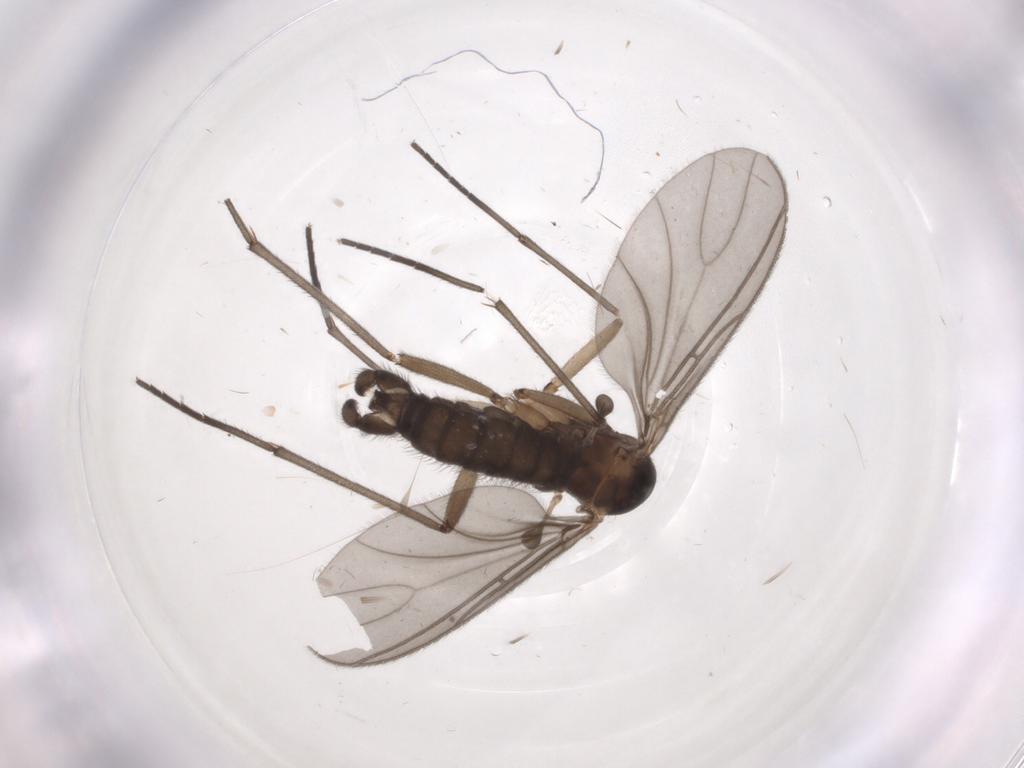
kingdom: Animalia
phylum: Arthropoda
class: Insecta
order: Diptera
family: Sciaridae
